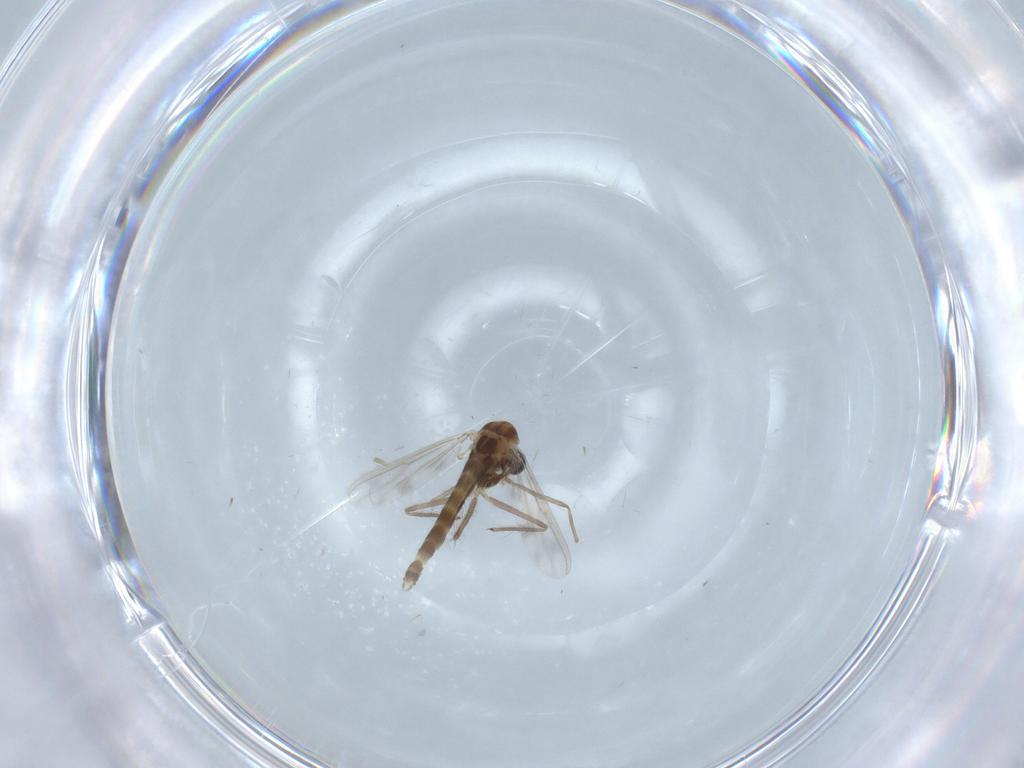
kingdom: Animalia
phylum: Arthropoda
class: Insecta
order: Diptera
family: Chironomidae
